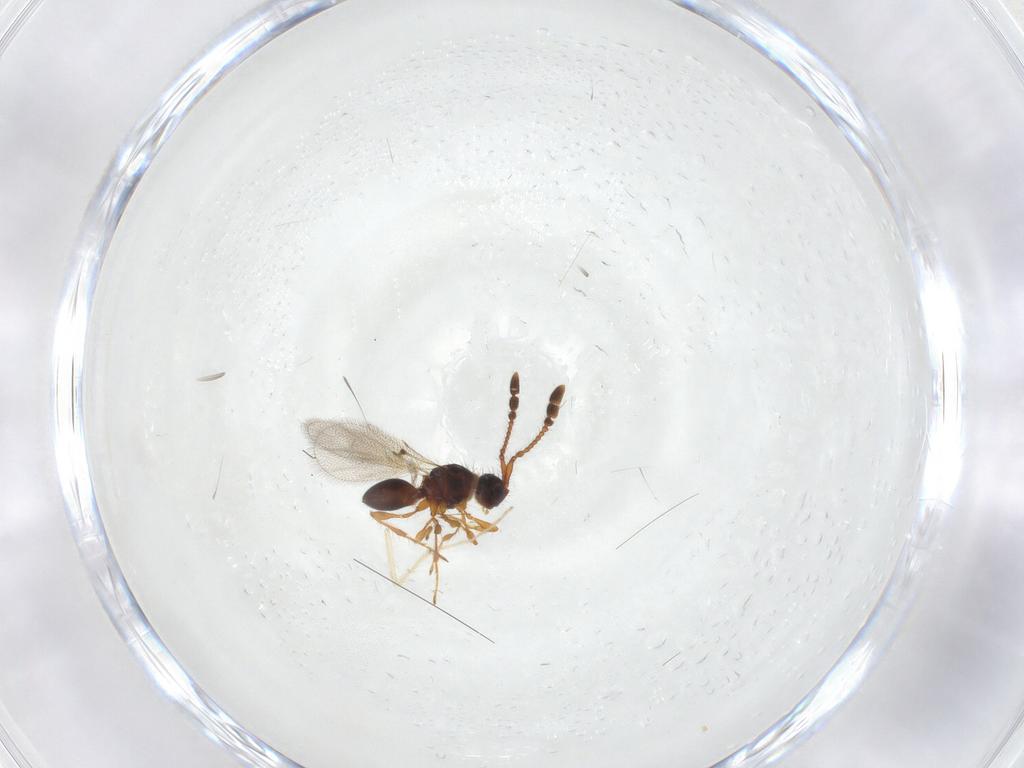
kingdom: Animalia
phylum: Arthropoda
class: Insecta
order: Hymenoptera
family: Diapriidae
